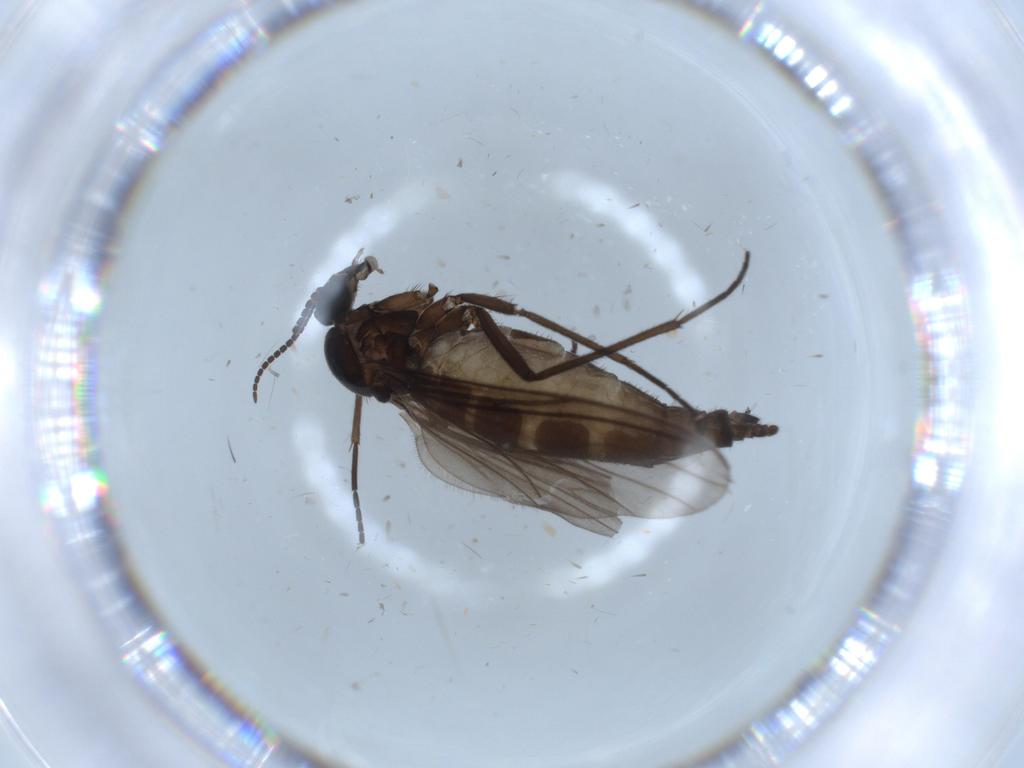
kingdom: Animalia
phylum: Arthropoda
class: Insecta
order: Diptera
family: Sciaridae
